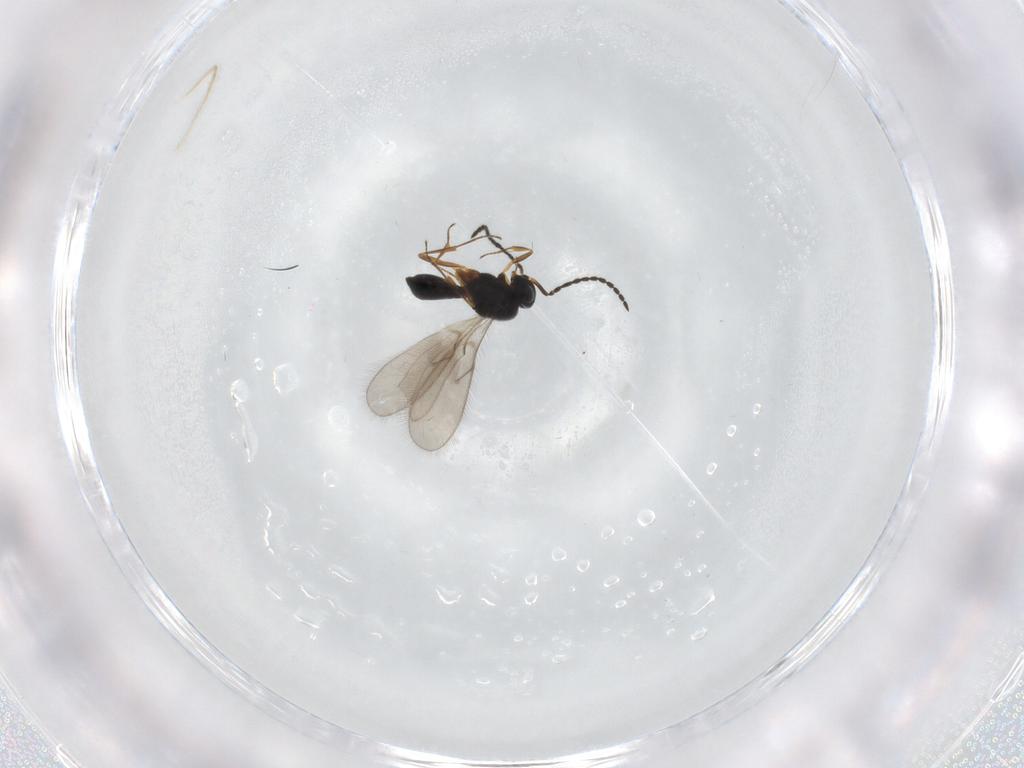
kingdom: Animalia
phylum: Arthropoda
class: Insecta
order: Hymenoptera
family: Scelionidae
